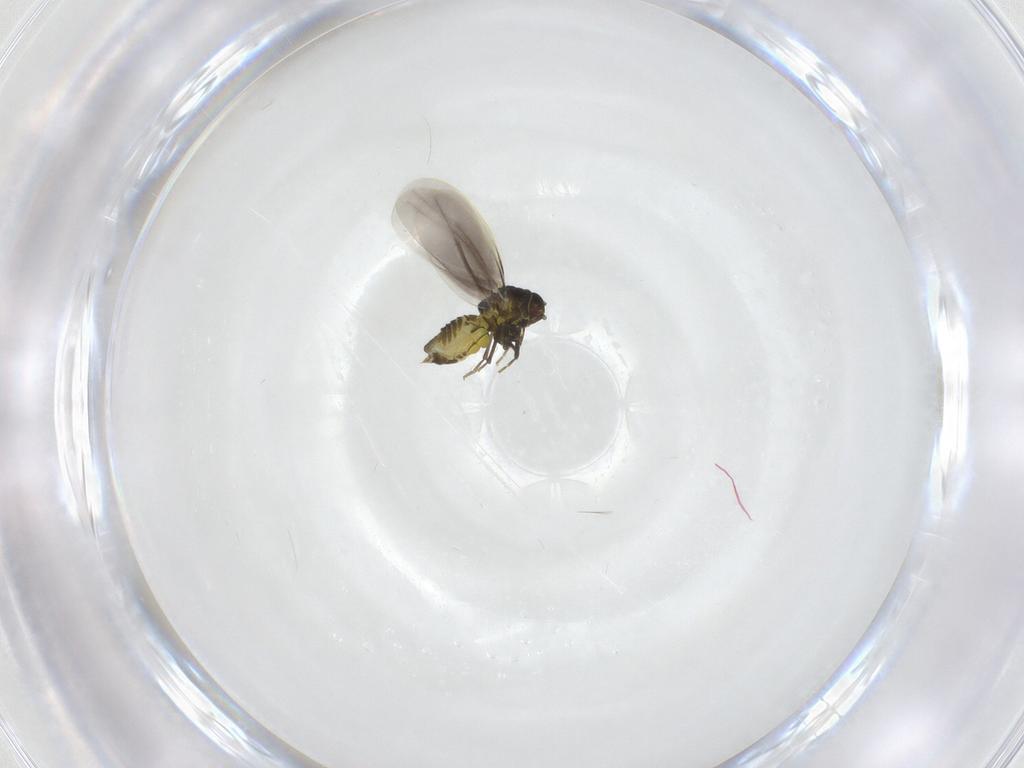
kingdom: Animalia
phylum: Arthropoda
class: Insecta
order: Hemiptera
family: Aleyrodidae
